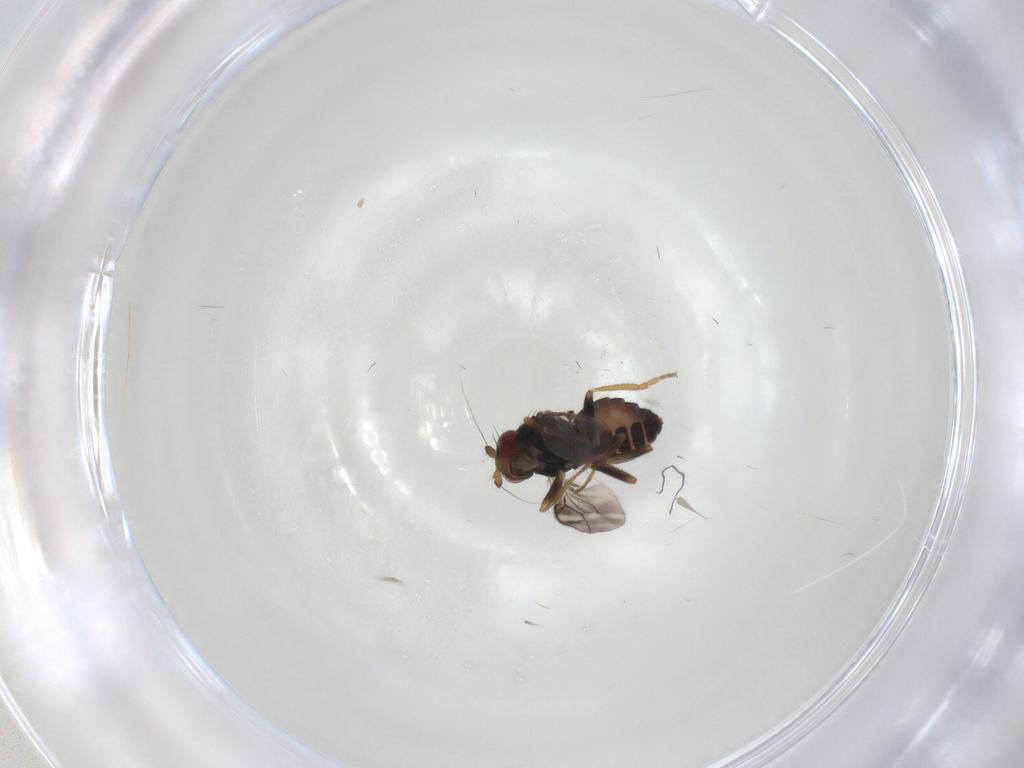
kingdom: Animalia
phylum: Arthropoda
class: Insecta
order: Diptera
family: Sphaeroceridae
